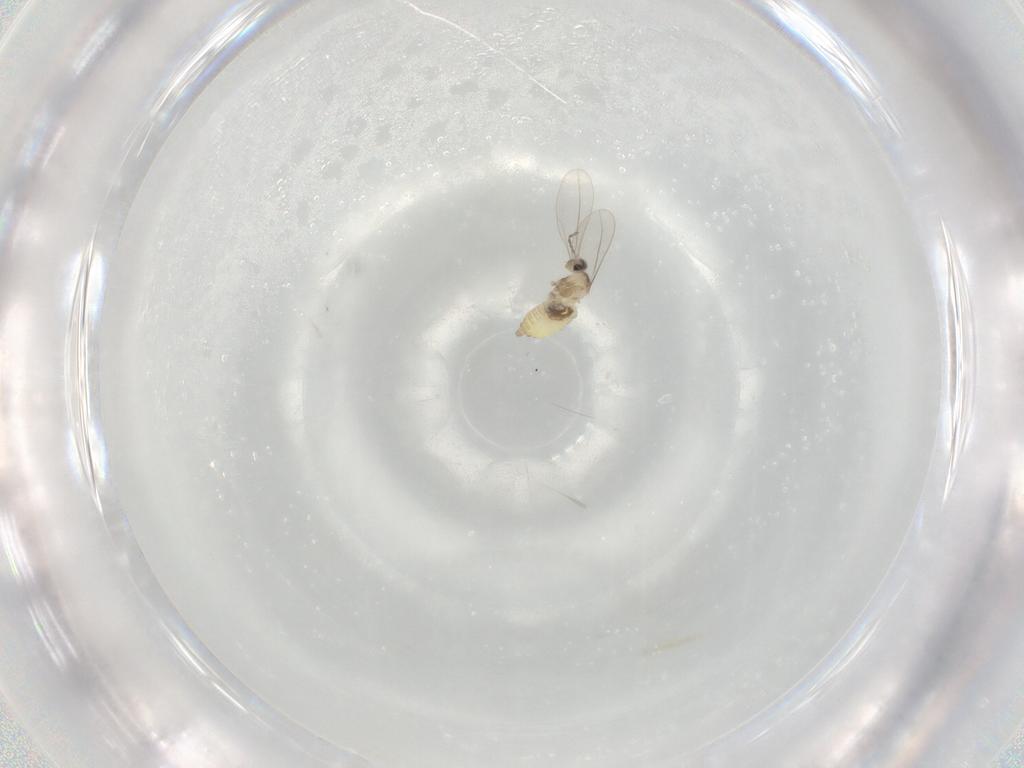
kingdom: Animalia
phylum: Arthropoda
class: Insecta
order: Diptera
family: Cecidomyiidae
